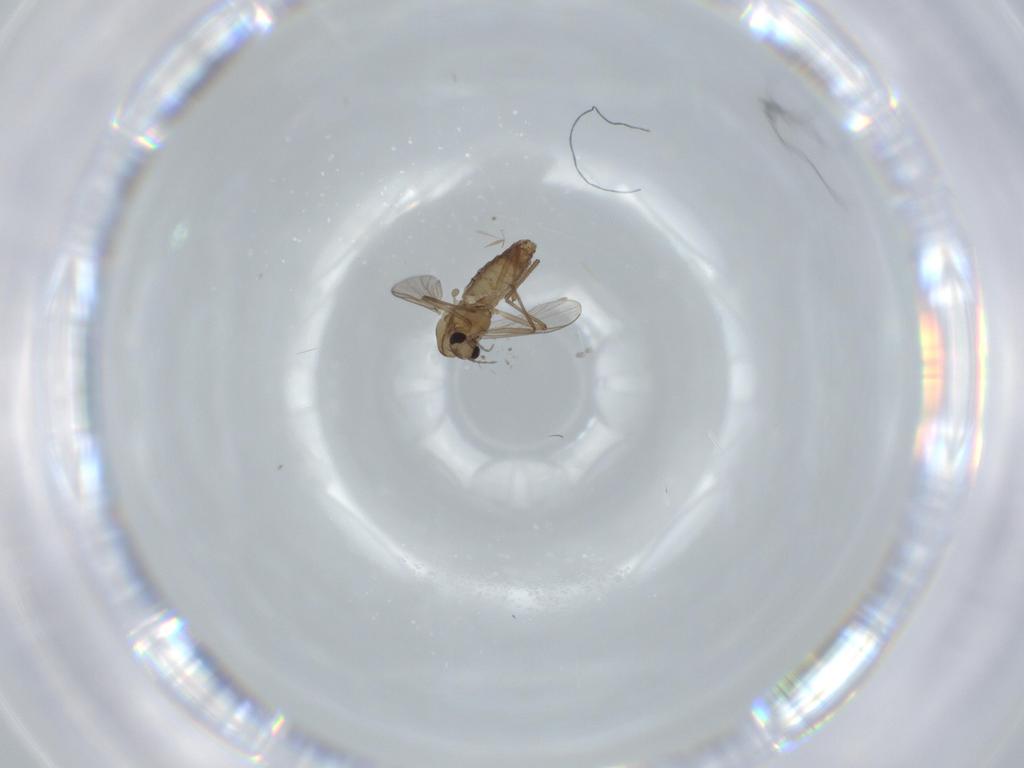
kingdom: Animalia
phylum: Arthropoda
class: Insecta
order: Diptera
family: Chironomidae
